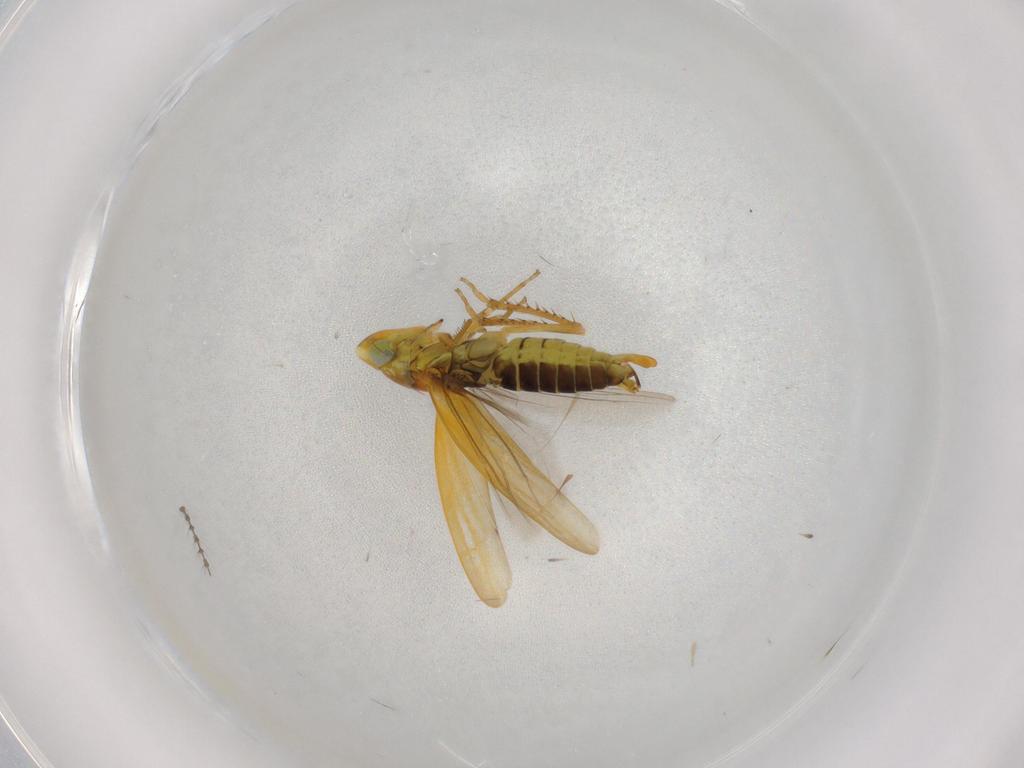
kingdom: Animalia
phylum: Arthropoda
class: Insecta
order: Hemiptera
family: Cicadellidae
